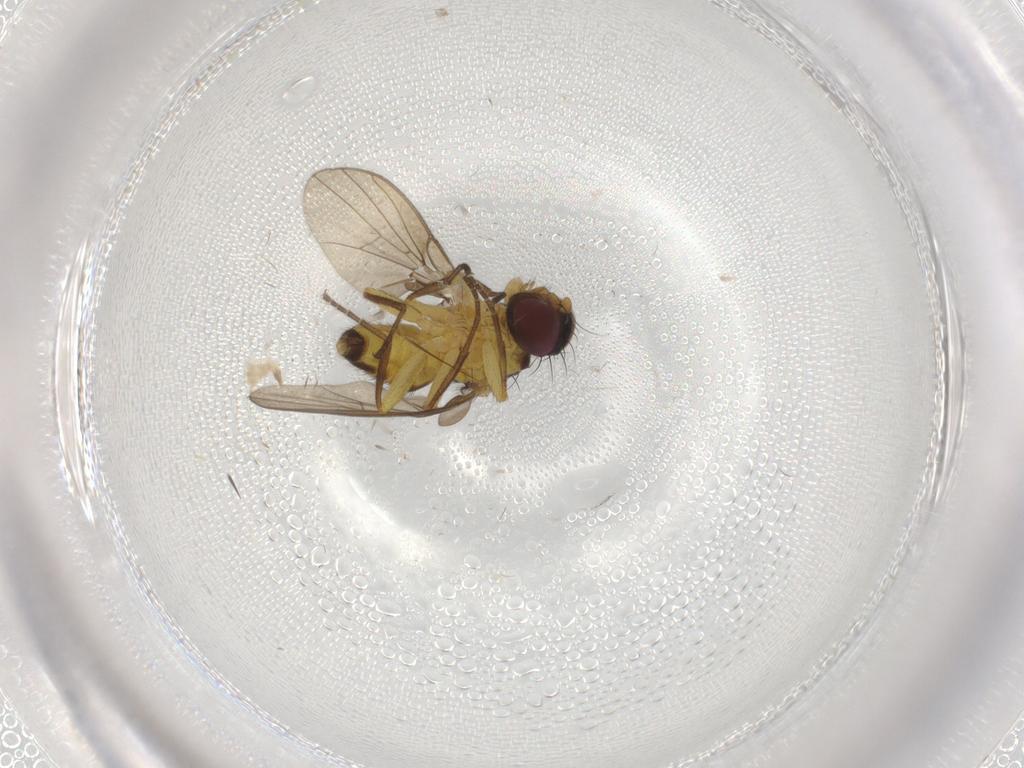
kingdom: Animalia
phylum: Arthropoda
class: Insecta
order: Diptera
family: Cecidomyiidae
